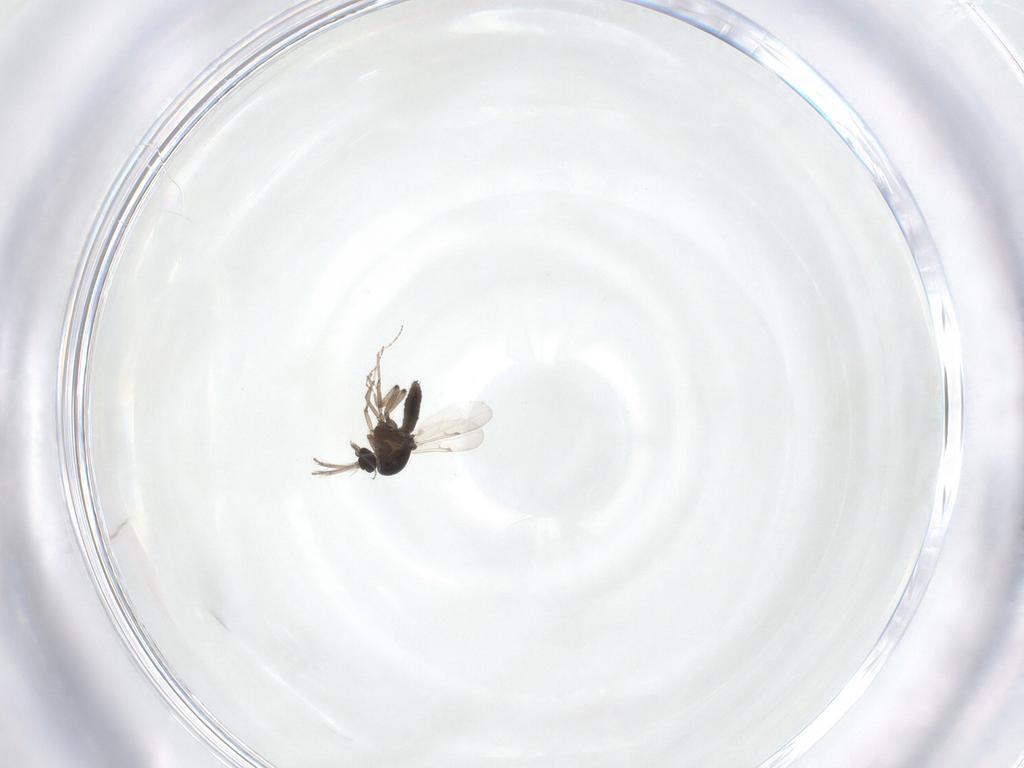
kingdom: Animalia
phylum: Arthropoda
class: Insecta
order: Diptera
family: Ceratopogonidae
